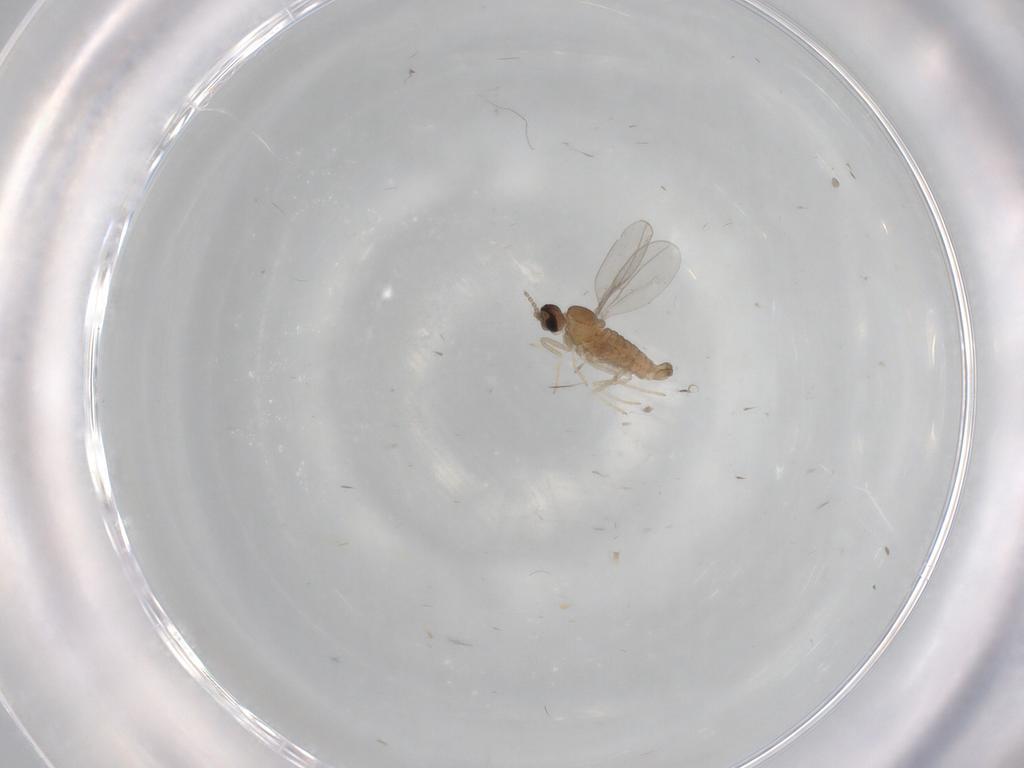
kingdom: Animalia
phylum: Arthropoda
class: Insecta
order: Diptera
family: Cecidomyiidae
